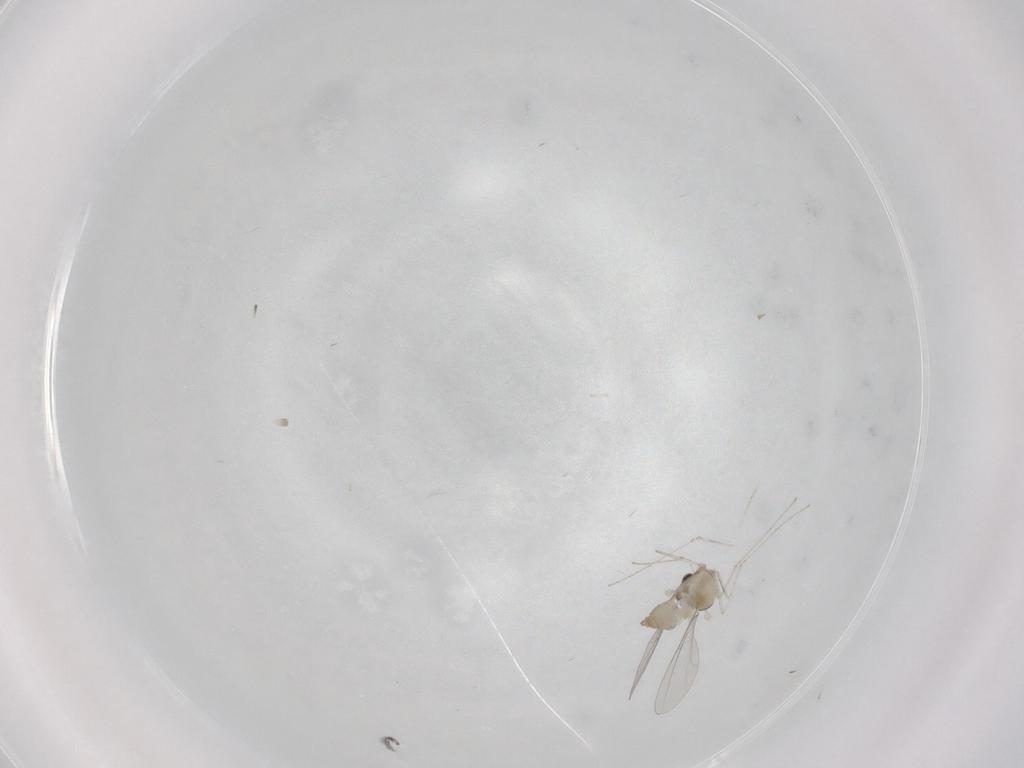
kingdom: Animalia
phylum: Arthropoda
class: Insecta
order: Diptera
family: Cecidomyiidae
